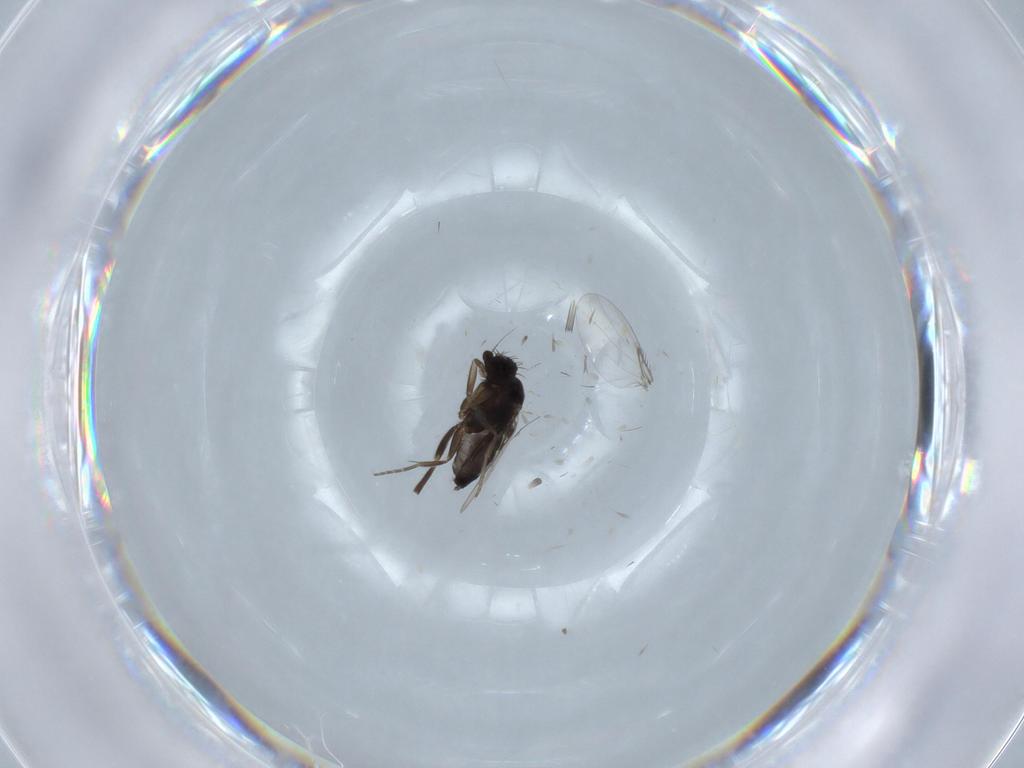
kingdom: Animalia
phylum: Arthropoda
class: Insecta
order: Diptera
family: Phoridae
